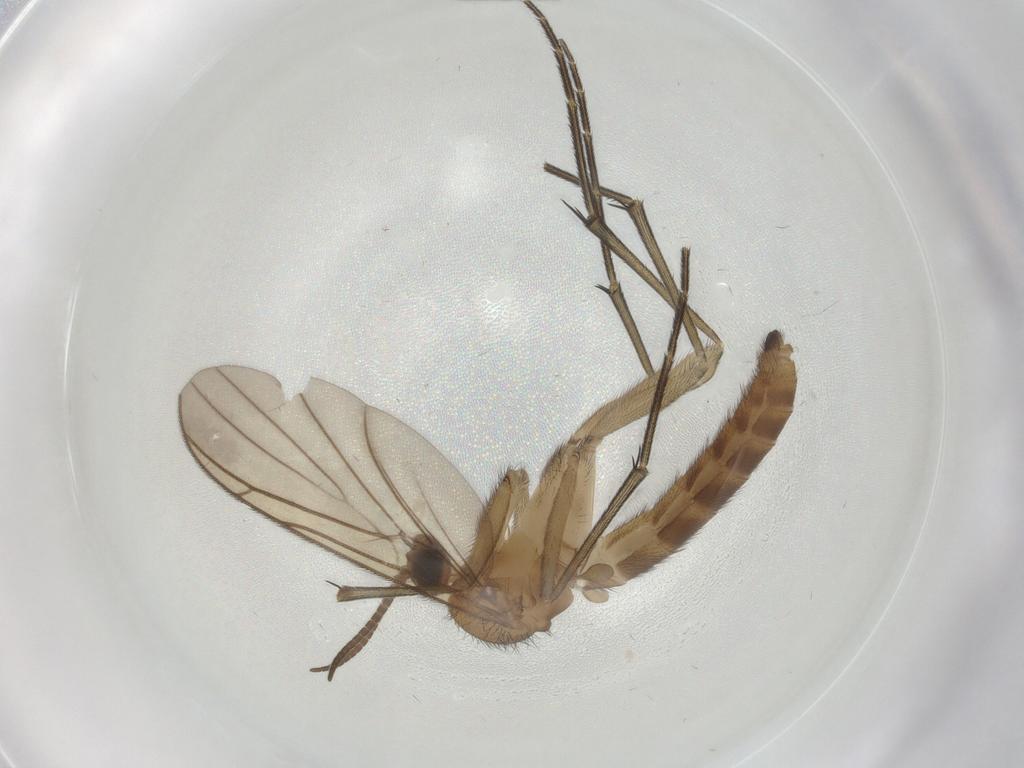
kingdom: Animalia
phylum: Arthropoda
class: Insecta
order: Diptera
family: Keroplatidae
